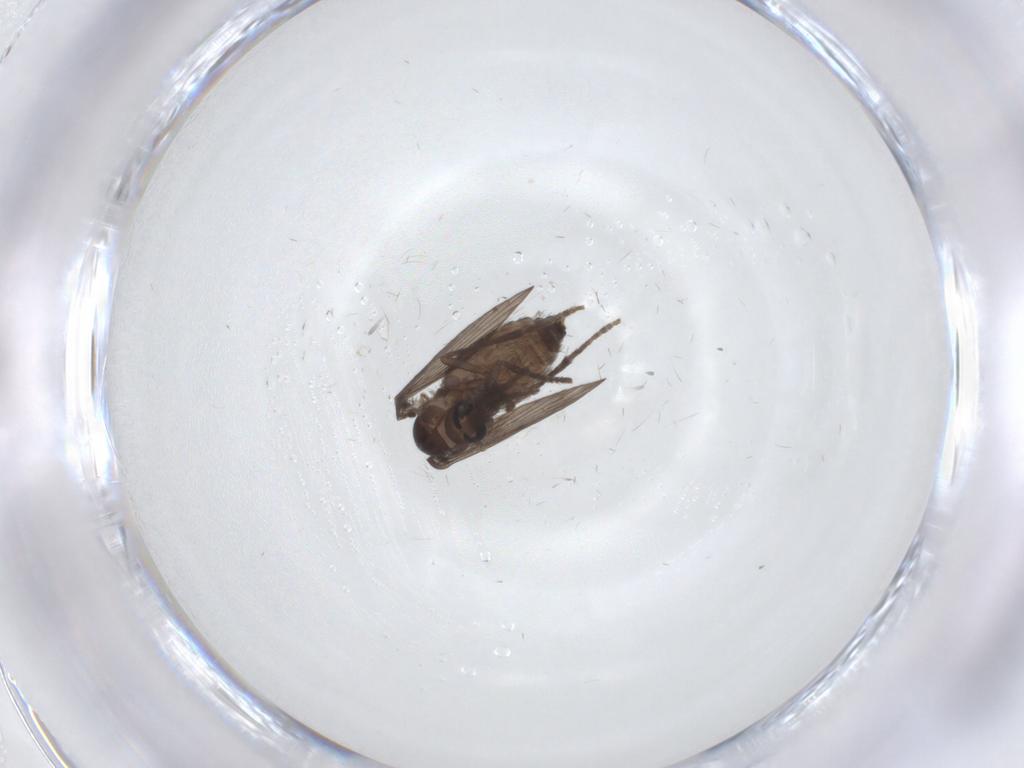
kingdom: Animalia
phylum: Arthropoda
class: Insecta
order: Diptera
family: Psychodidae
